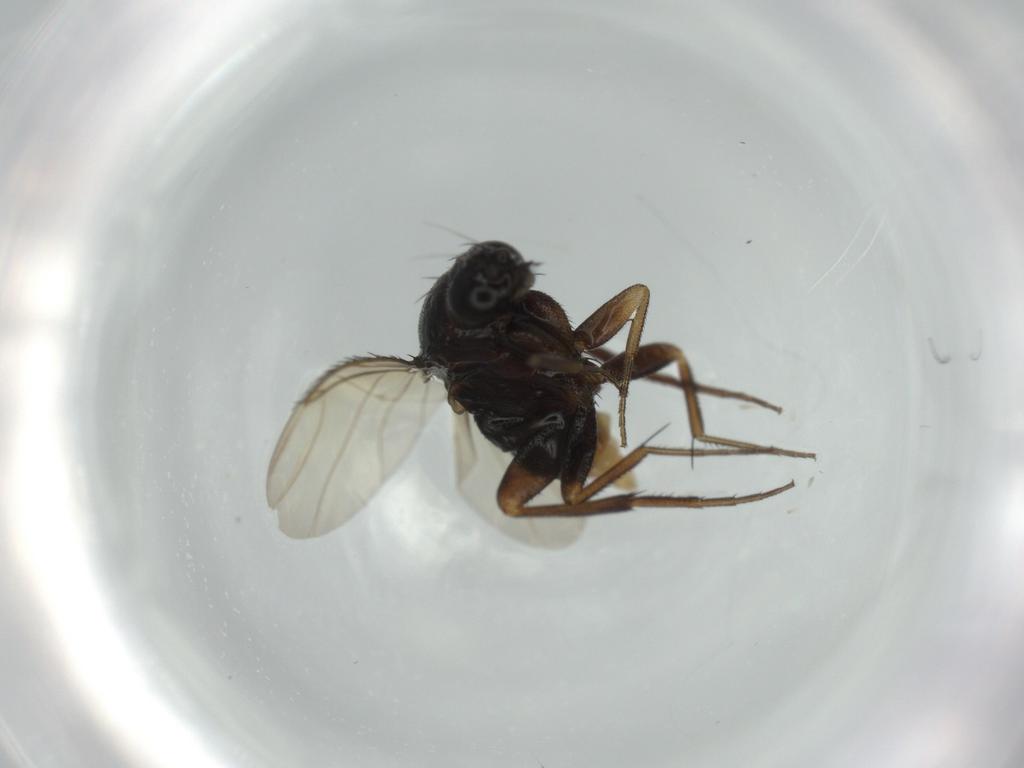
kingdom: Animalia
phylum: Arthropoda
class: Insecta
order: Diptera
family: Phoridae
